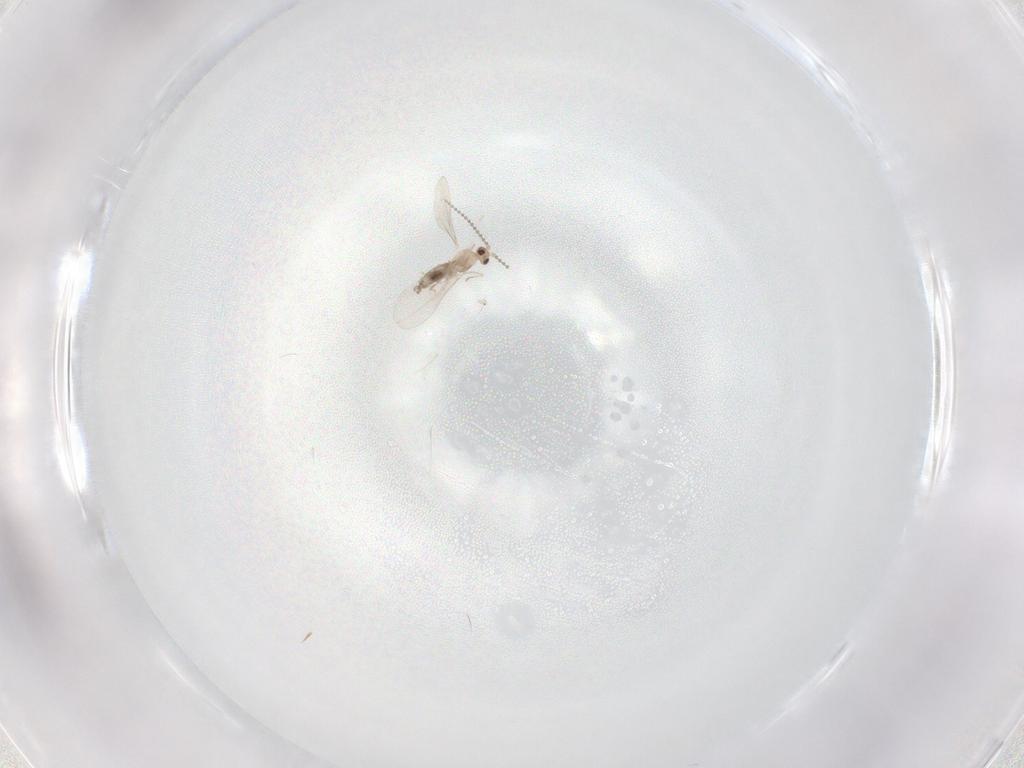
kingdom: Animalia
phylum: Arthropoda
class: Insecta
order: Diptera
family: Cecidomyiidae
